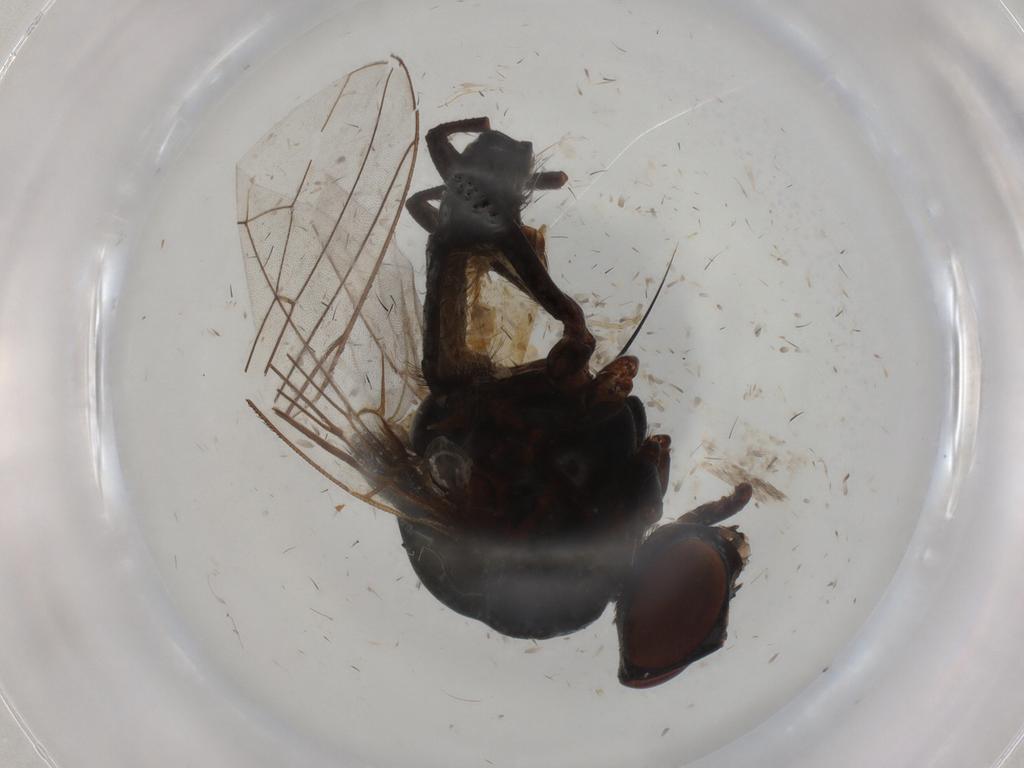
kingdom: Animalia
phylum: Arthropoda
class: Insecta
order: Diptera
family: Anthomyiidae
